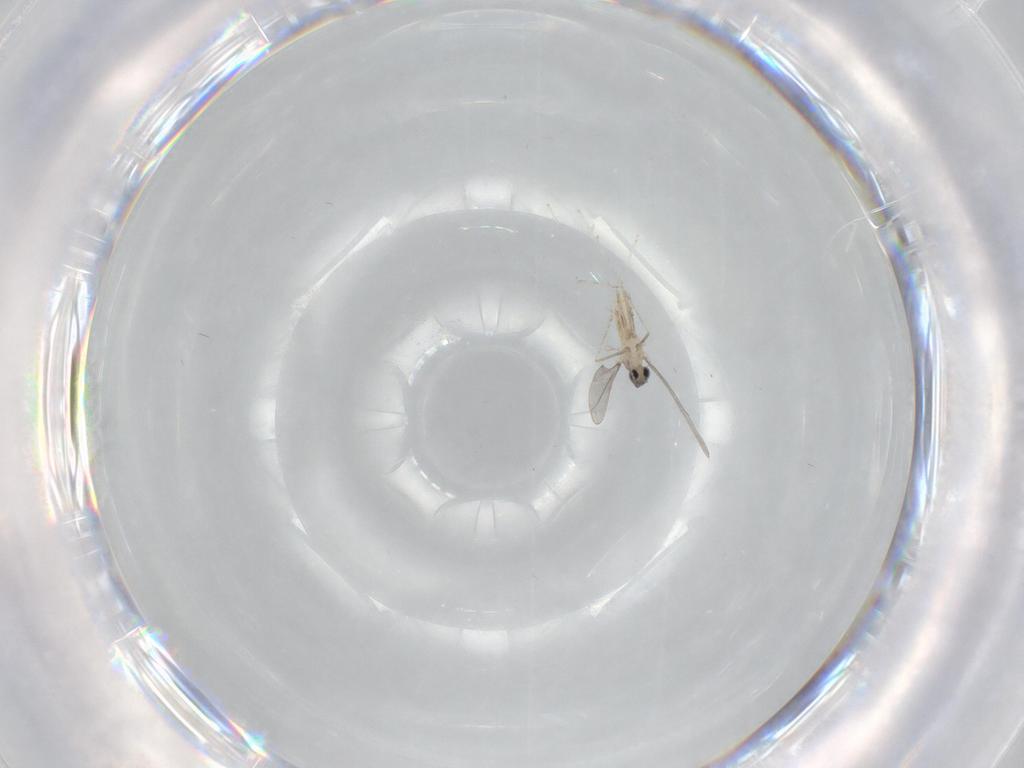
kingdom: Animalia
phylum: Arthropoda
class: Insecta
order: Diptera
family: Cecidomyiidae
